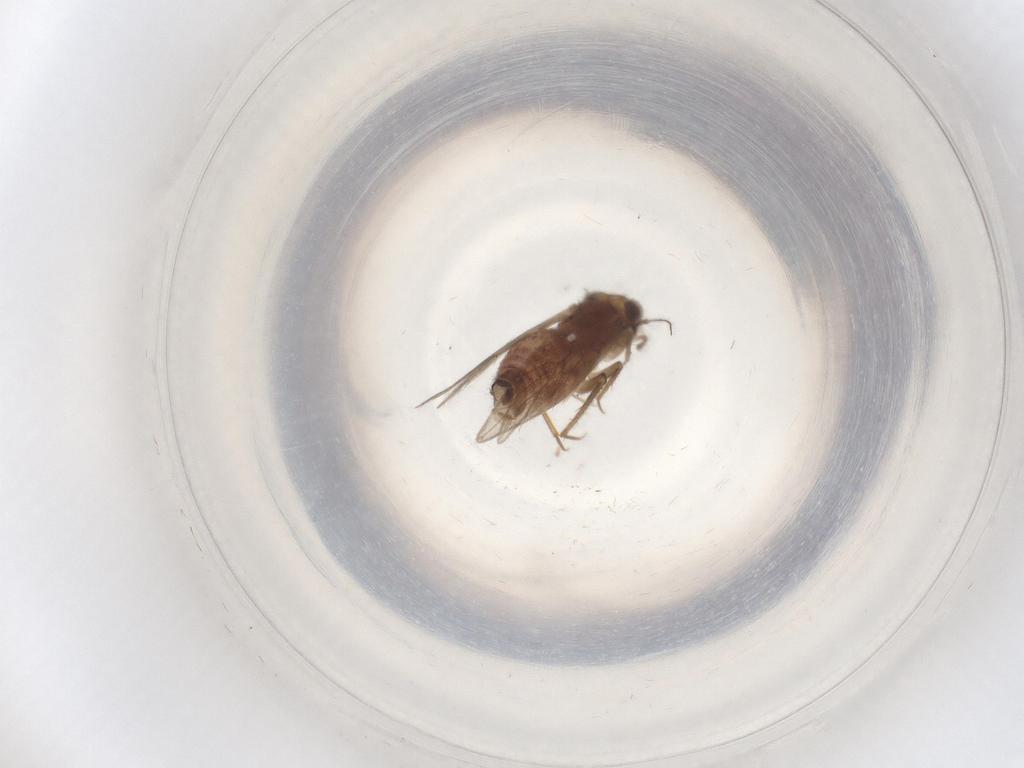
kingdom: Animalia
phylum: Arthropoda
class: Insecta
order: Psocodea
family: Lepidopsocidae
